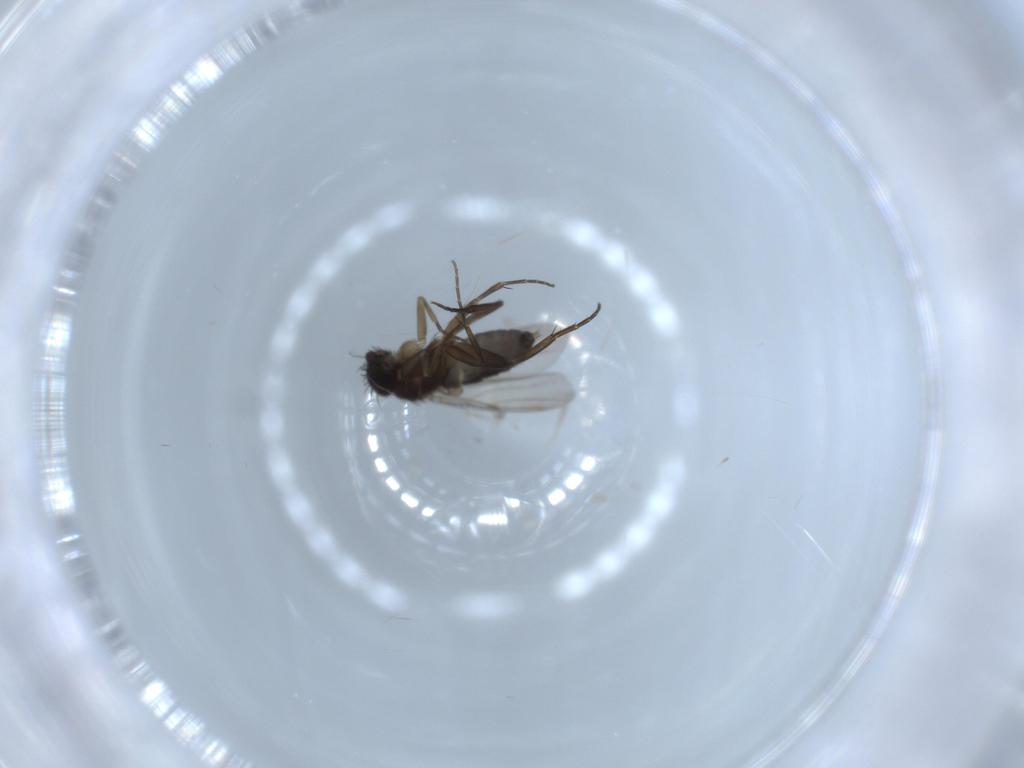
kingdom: Animalia
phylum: Arthropoda
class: Insecta
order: Diptera
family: Phoridae
